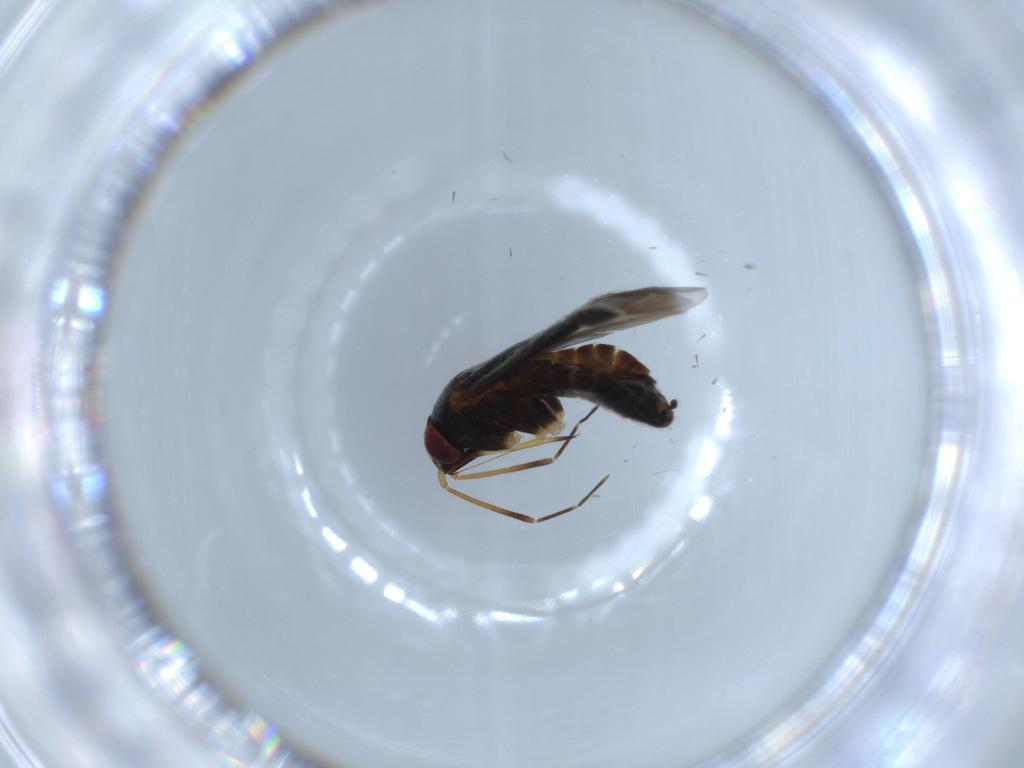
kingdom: Animalia
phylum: Arthropoda
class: Insecta
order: Hemiptera
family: Miridae
